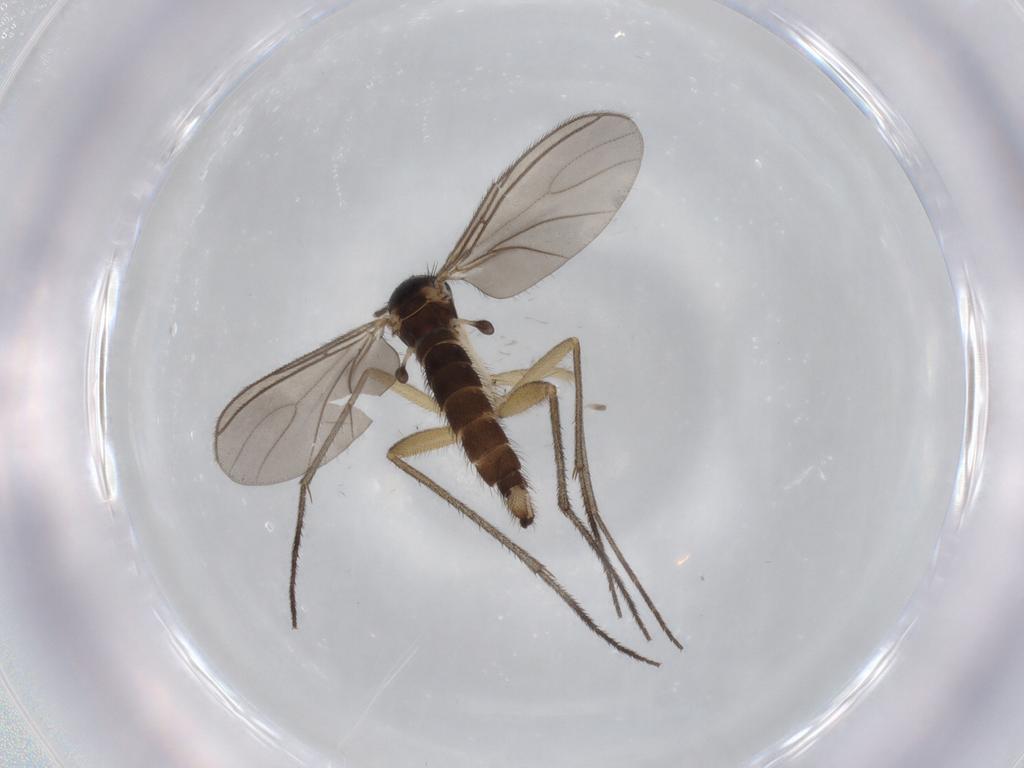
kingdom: Animalia
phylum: Arthropoda
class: Insecta
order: Diptera
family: Sciaridae
